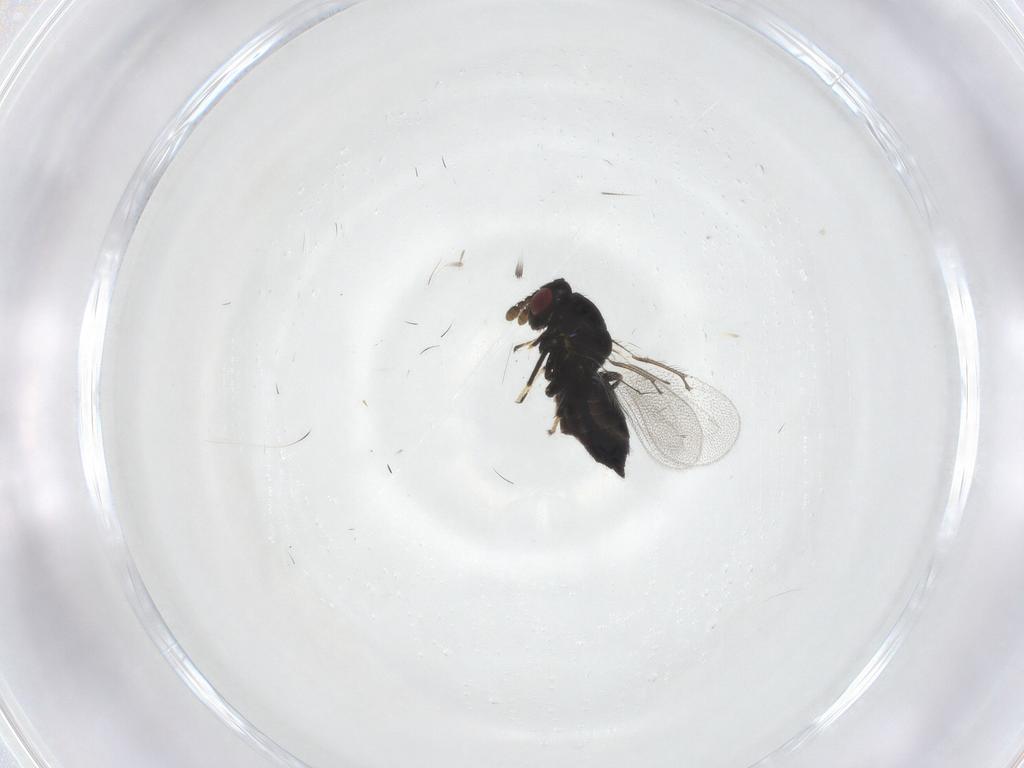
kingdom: Animalia
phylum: Arthropoda
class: Insecta
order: Hymenoptera
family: Eulophidae
